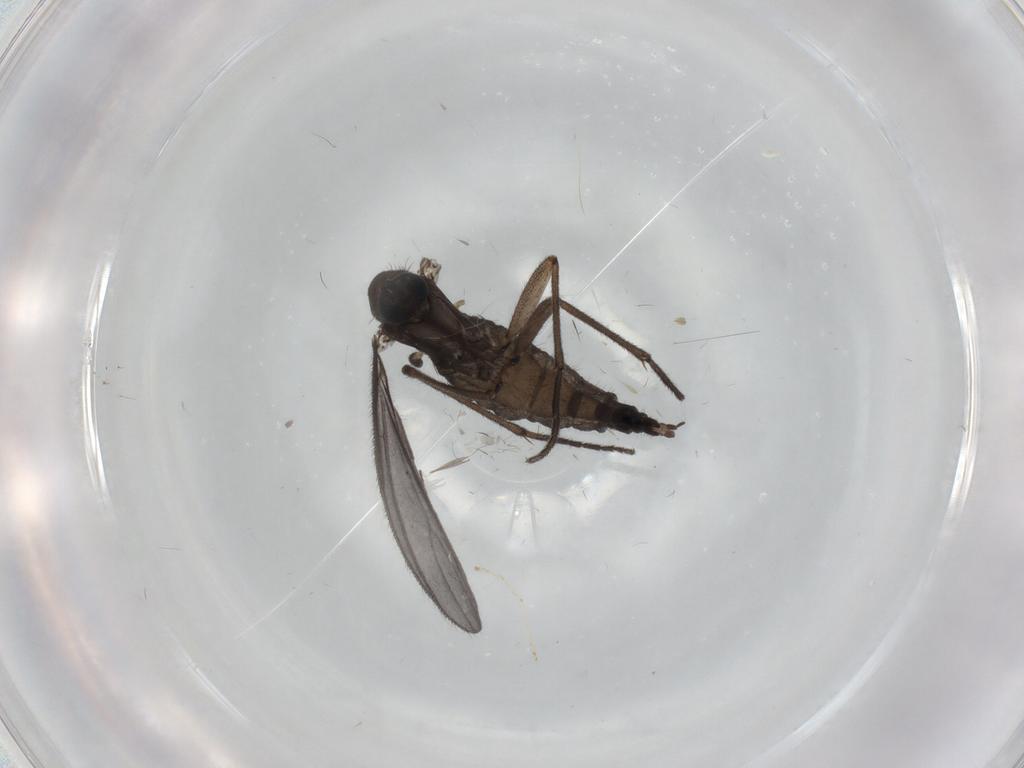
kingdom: Animalia
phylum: Arthropoda
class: Insecta
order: Diptera
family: Sciaridae
